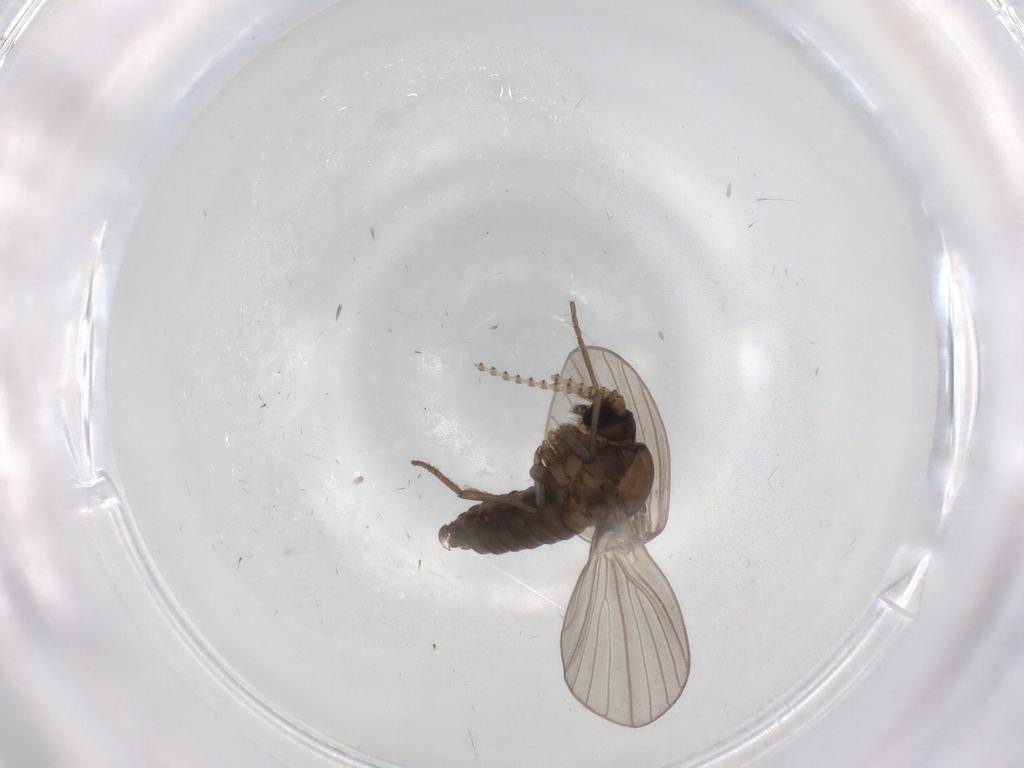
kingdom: Animalia
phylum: Arthropoda
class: Insecta
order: Diptera
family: Psychodidae
